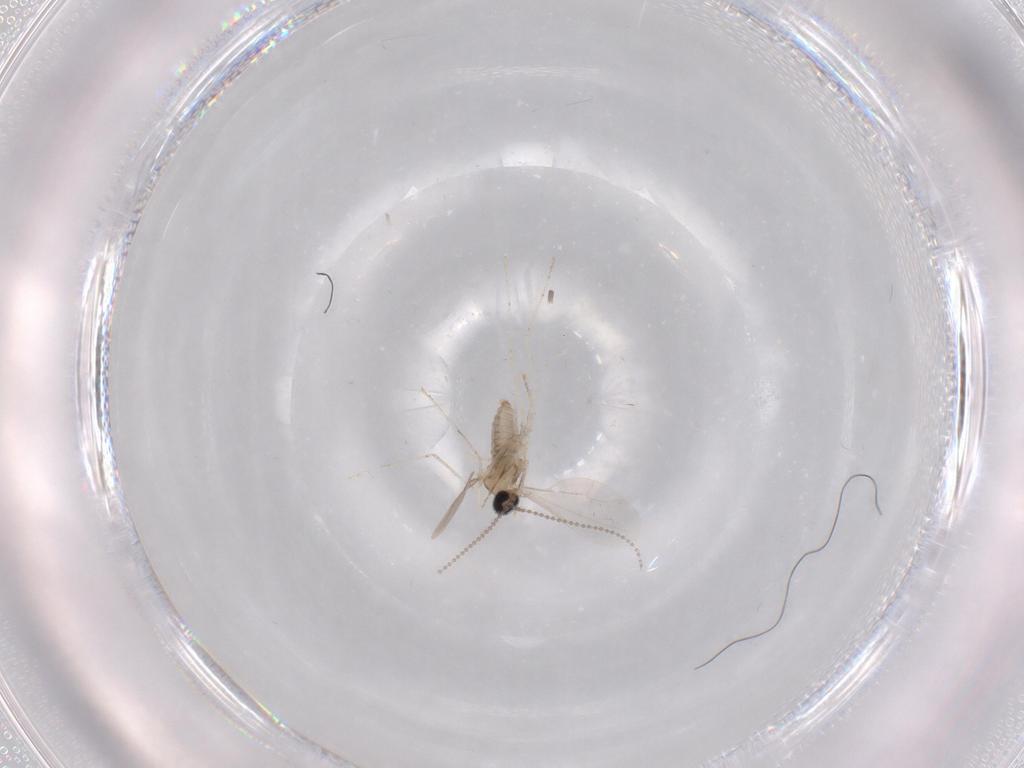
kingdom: Animalia
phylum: Arthropoda
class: Insecta
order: Diptera
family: Cecidomyiidae
